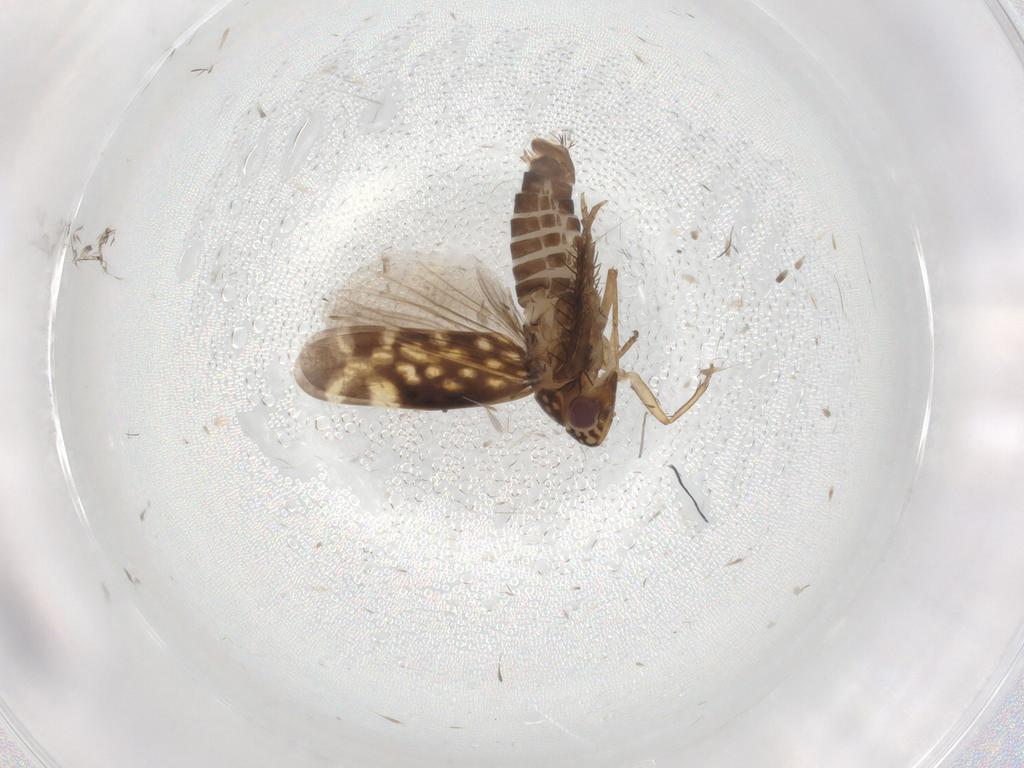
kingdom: Animalia
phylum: Arthropoda
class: Insecta
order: Hemiptera
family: Cicadellidae
